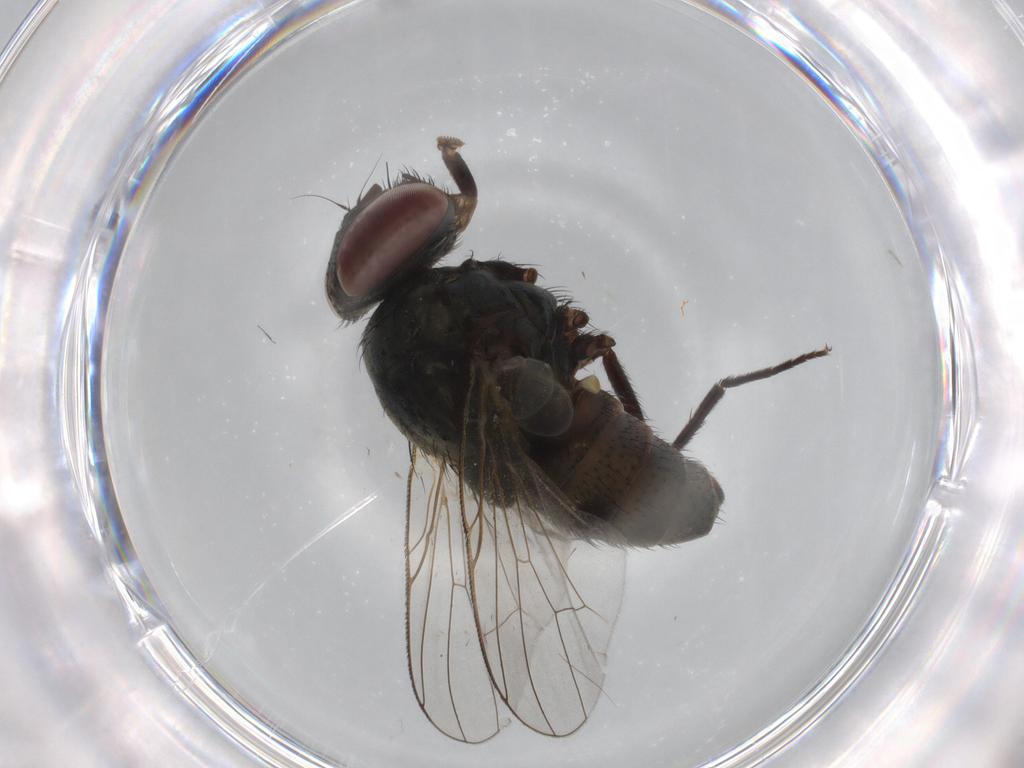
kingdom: Animalia
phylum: Arthropoda
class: Insecta
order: Diptera
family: Muscidae
